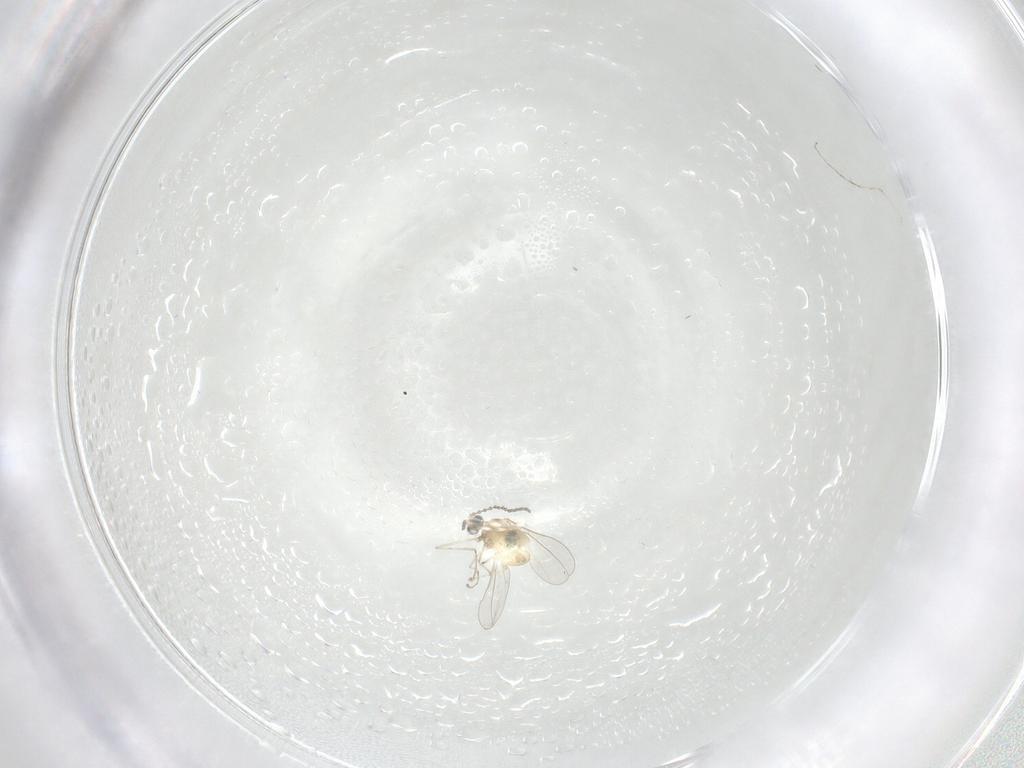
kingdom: Animalia
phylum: Arthropoda
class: Insecta
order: Diptera
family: Cecidomyiidae
